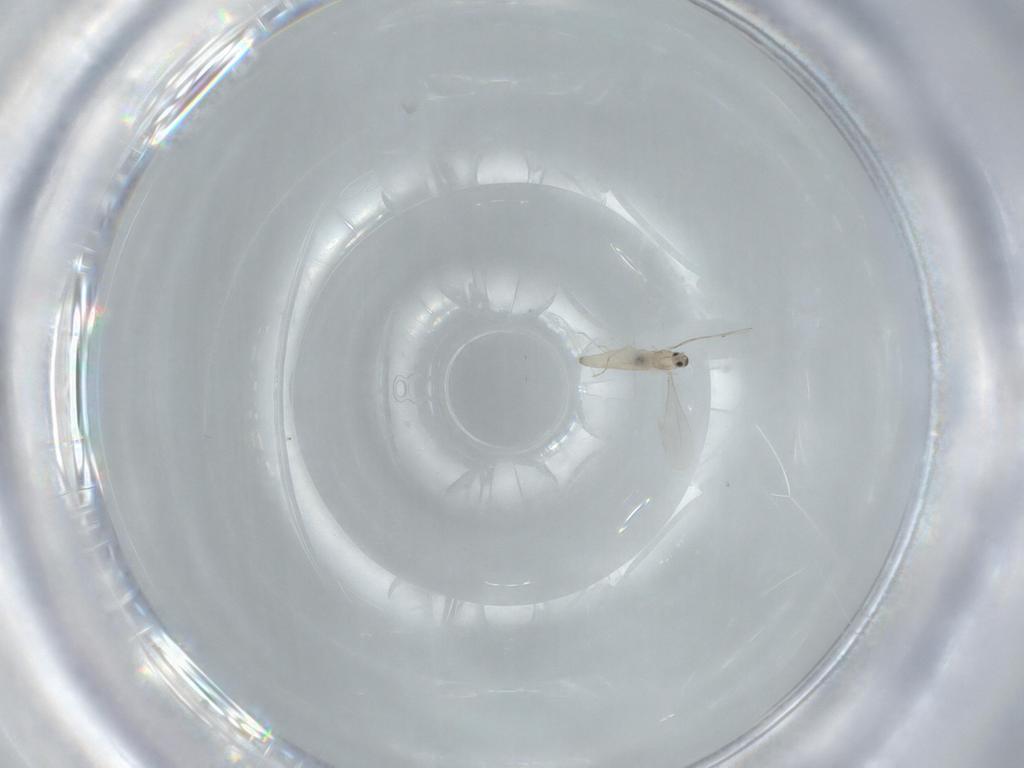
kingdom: Animalia
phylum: Arthropoda
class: Insecta
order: Diptera
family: Cecidomyiidae
